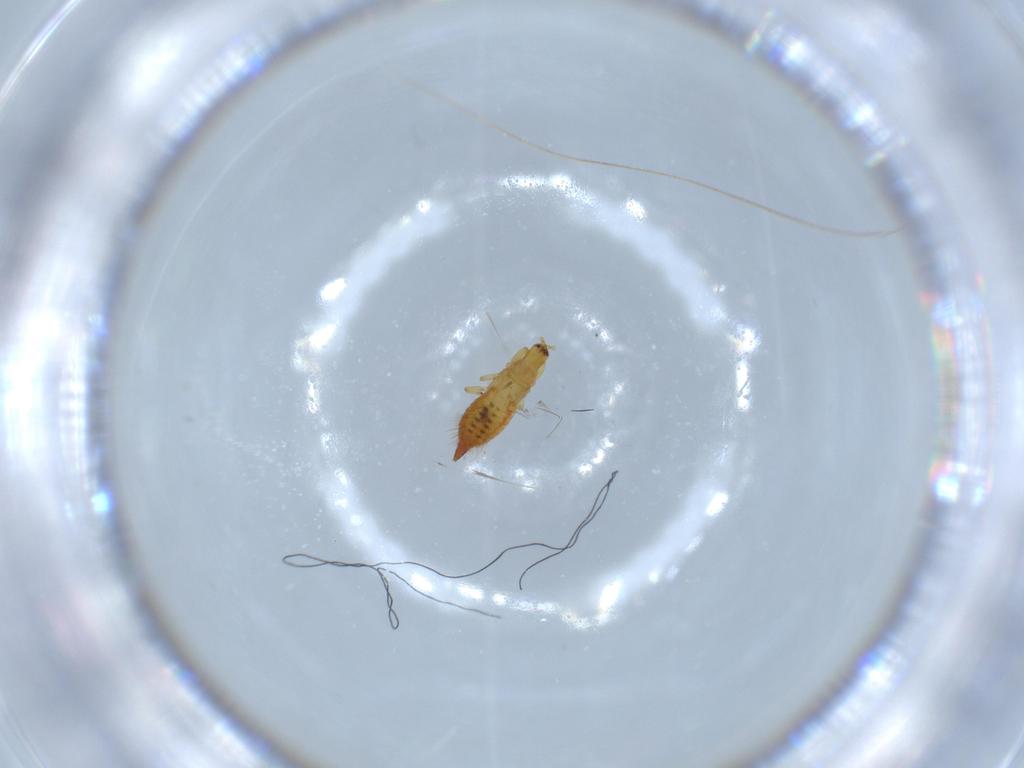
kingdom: Animalia
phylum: Arthropoda
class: Insecta
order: Thysanoptera
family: Phlaeothripidae
